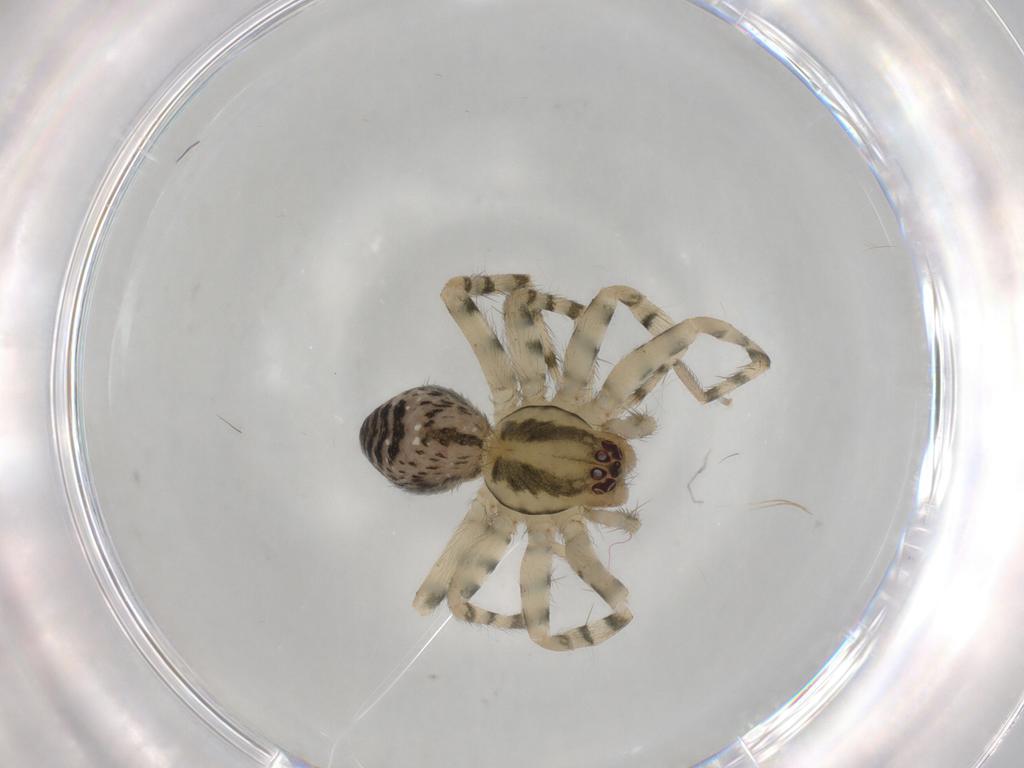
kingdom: Animalia
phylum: Arthropoda
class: Arachnida
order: Araneae
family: Amaurobiidae
